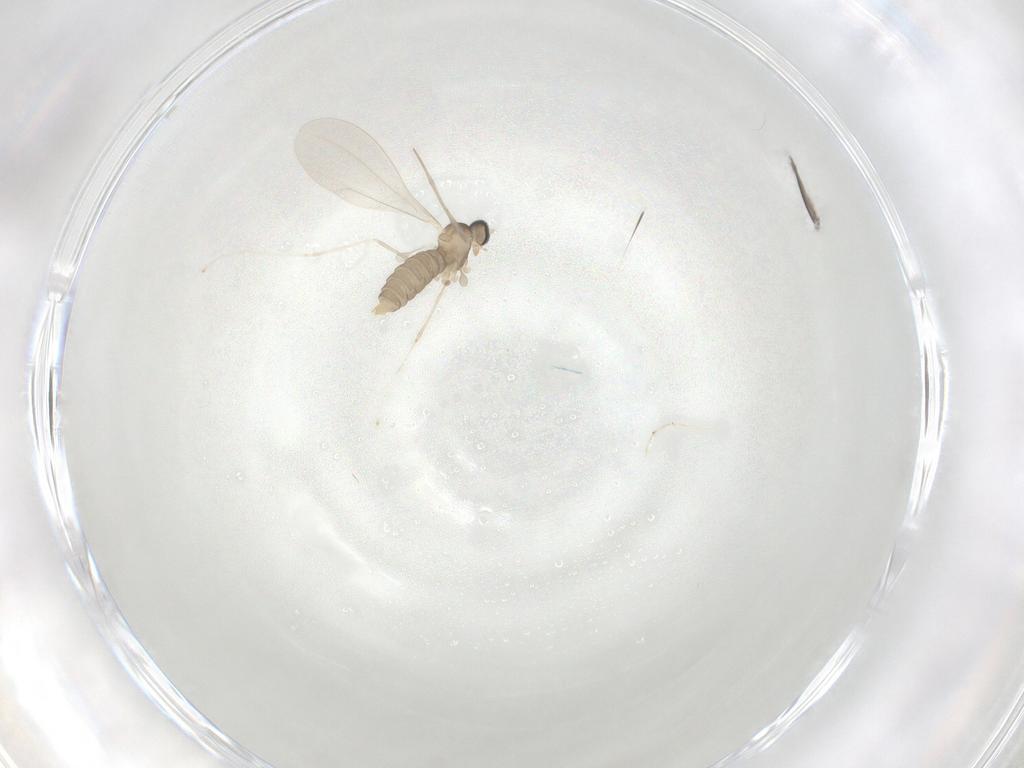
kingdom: Animalia
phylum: Arthropoda
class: Insecta
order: Diptera
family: Cecidomyiidae
